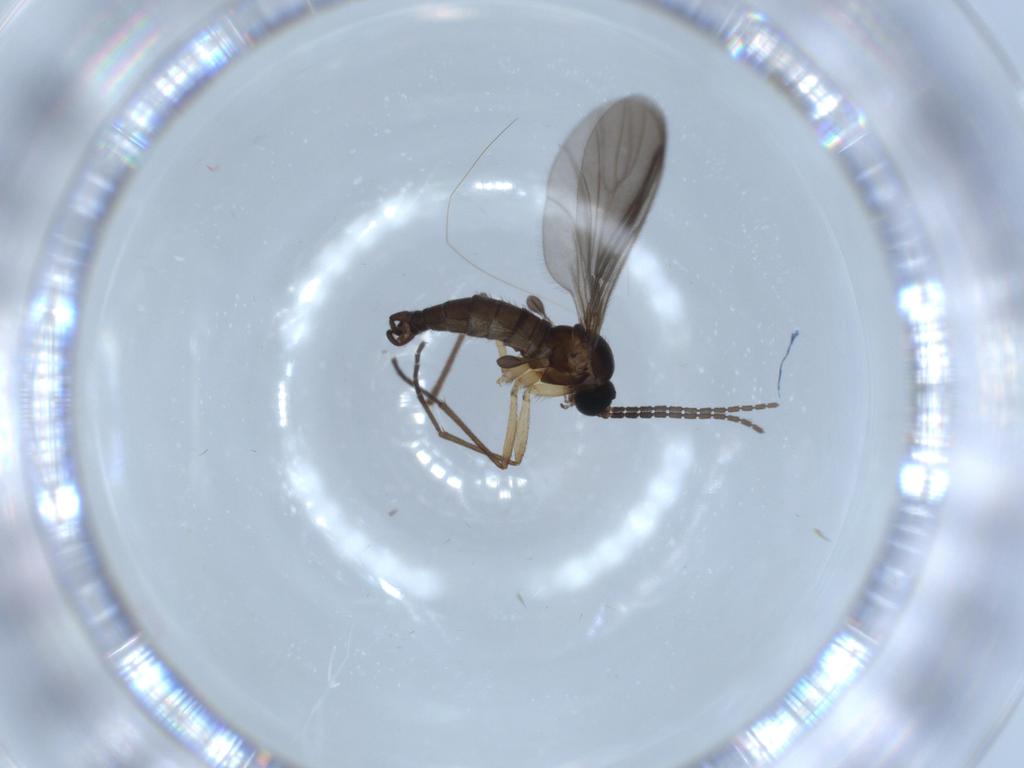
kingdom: Animalia
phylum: Arthropoda
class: Insecta
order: Diptera
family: Sciaridae
